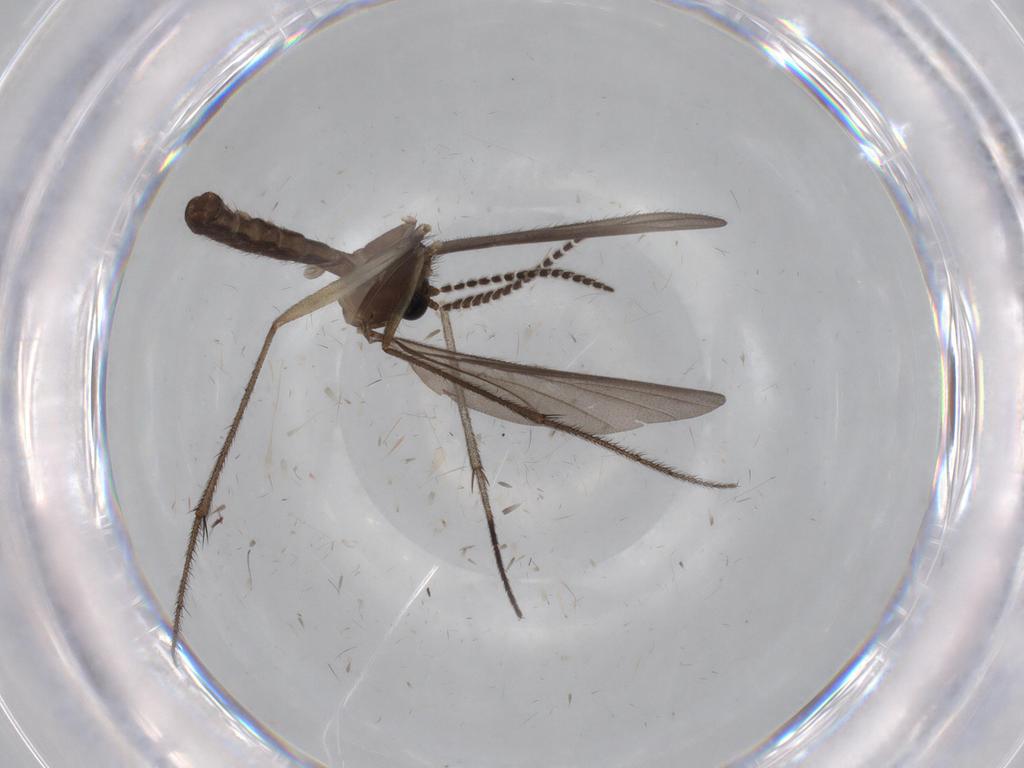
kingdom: Animalia
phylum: Arthropoda
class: Insecta
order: Diptera
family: Ditomyiidae
